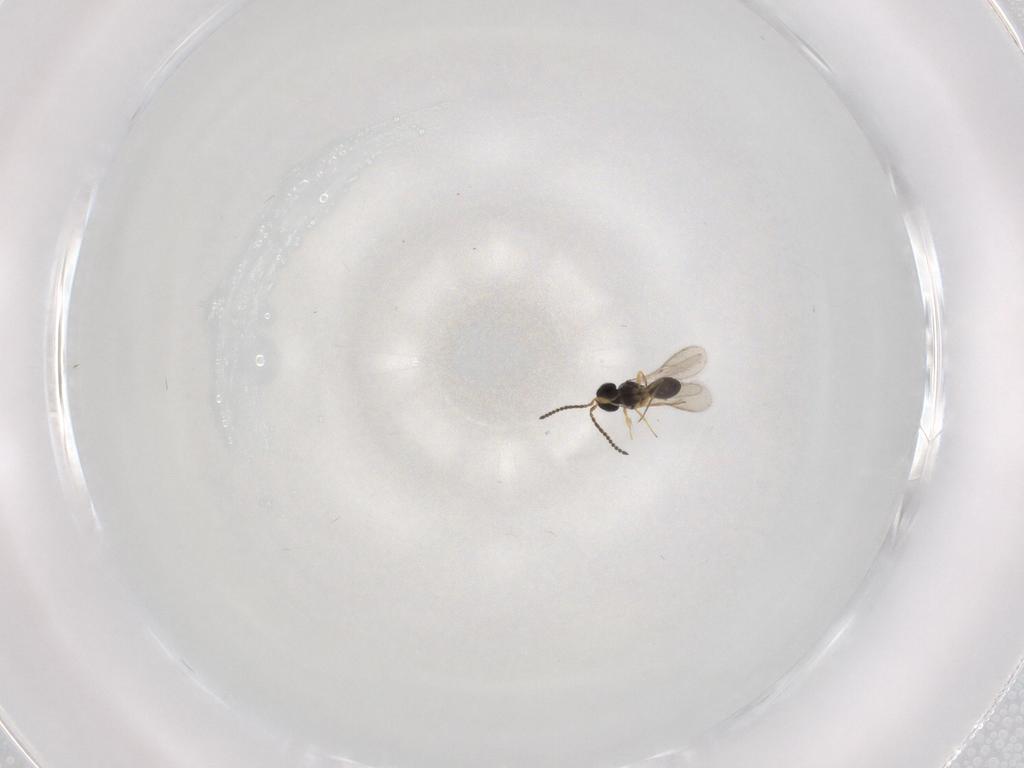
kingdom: Animalia
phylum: Arthropoda
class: Insecta
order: Hymenoptera
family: Scelionidae
